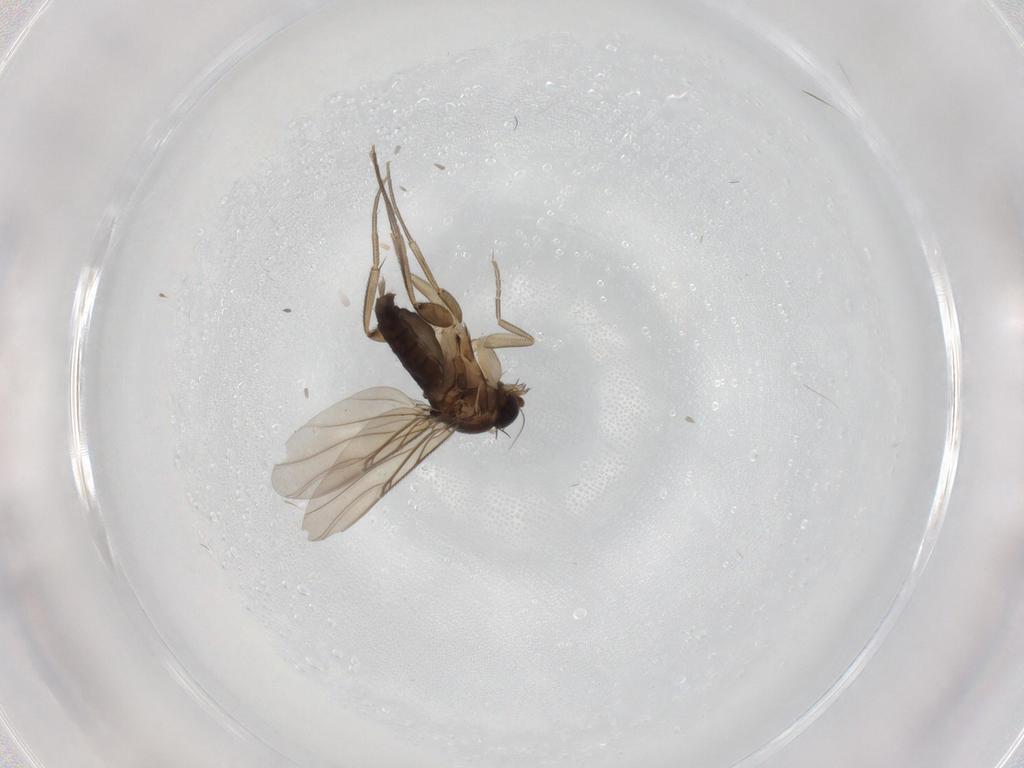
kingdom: Animalia
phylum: Arthropoda
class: Insecta
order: Diptera
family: Phoridae
